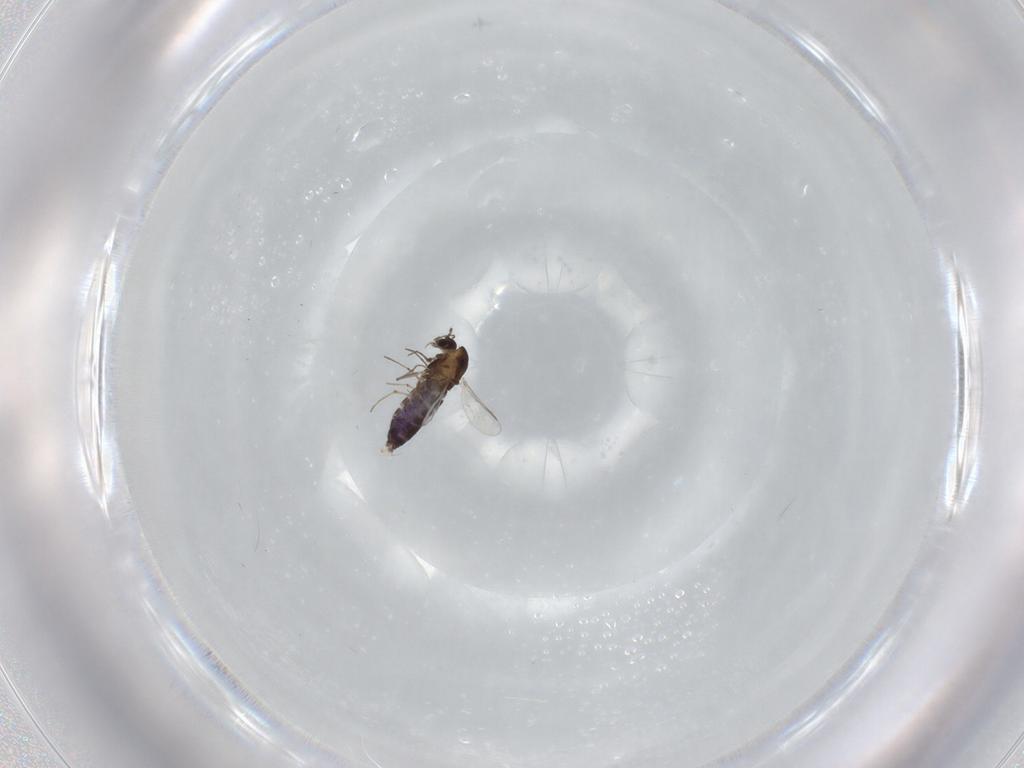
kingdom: Animalia
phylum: Arthropoda
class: Insecta
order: Diptera
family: Chironomidae
